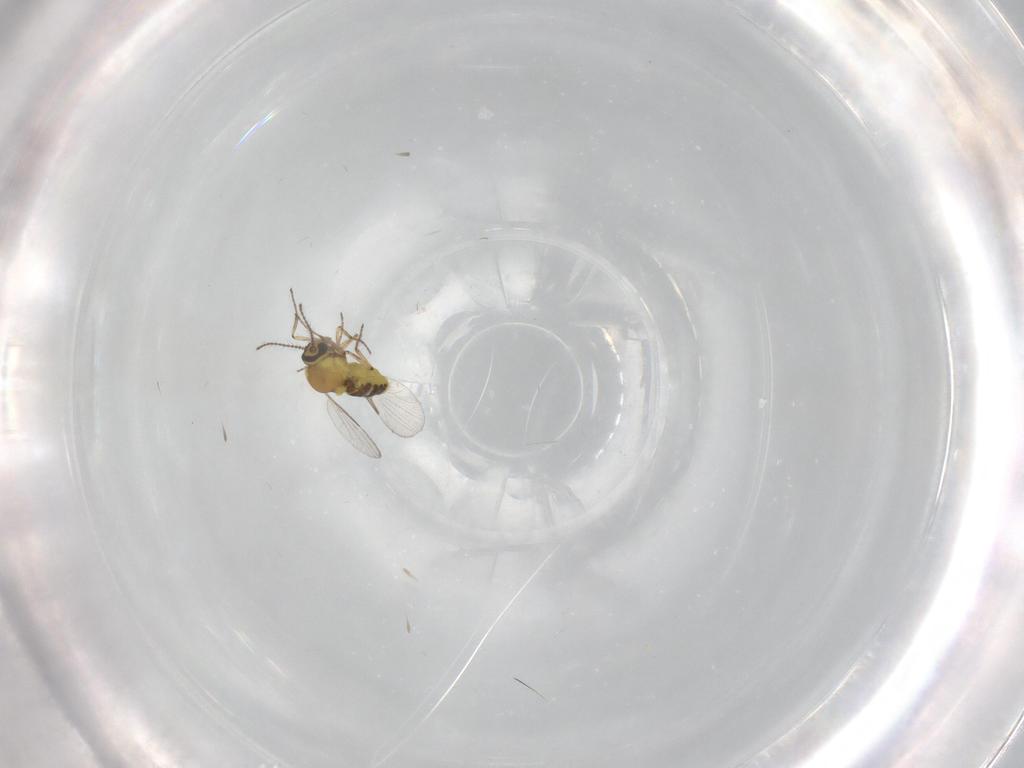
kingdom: Animalia
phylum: Arthropoda
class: Insecta
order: Diptera
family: Ceratopogonidae
